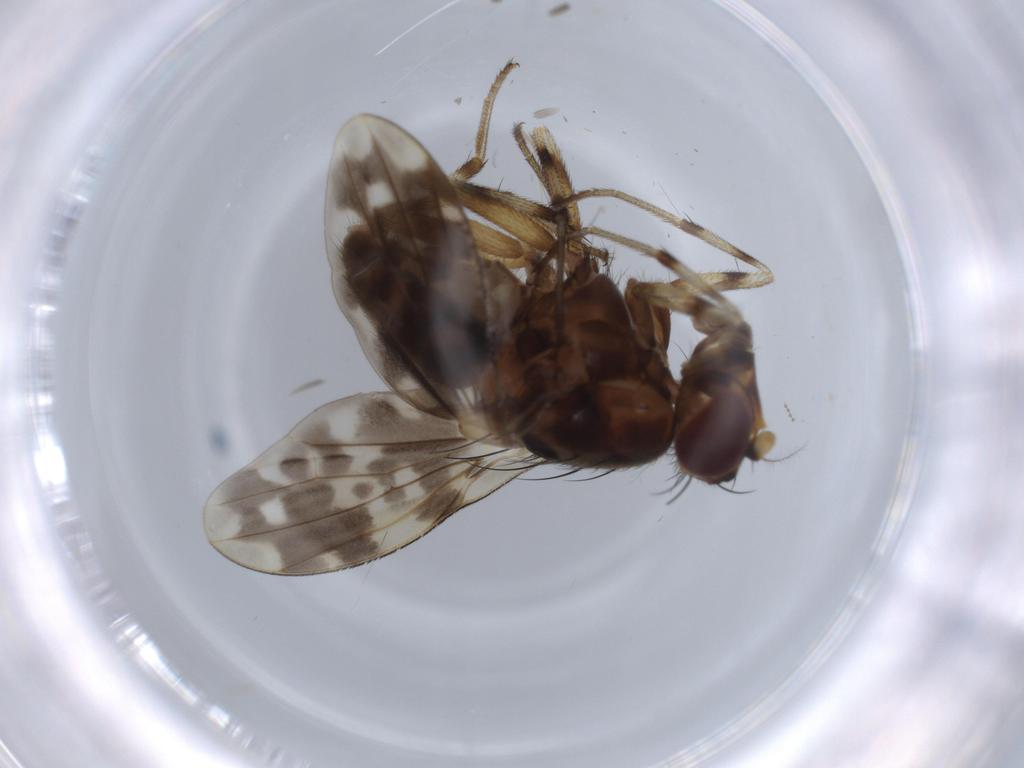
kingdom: Animalia
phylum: Arthropoda
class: Insecta
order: Diptera
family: Lauxaniidae
